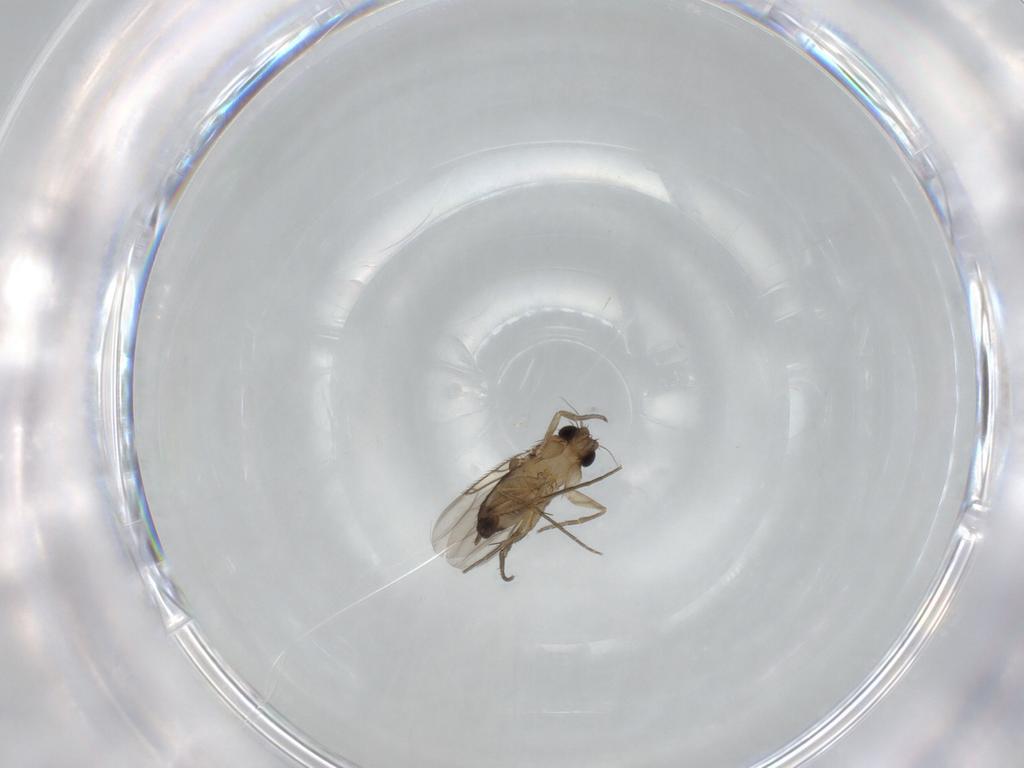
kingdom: Animalia
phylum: Arthropoda
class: Insecta
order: Diptera
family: Phoridae
